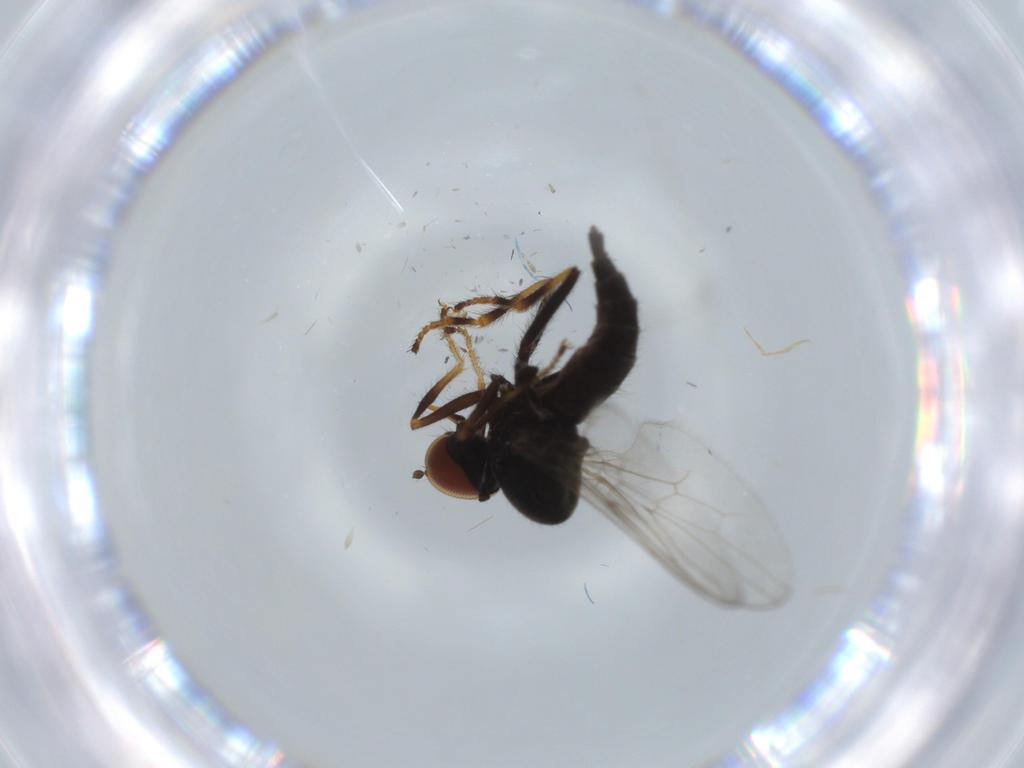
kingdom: Animalia
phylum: Arthropoda
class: Insecta
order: Diptera
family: Hybotidae
